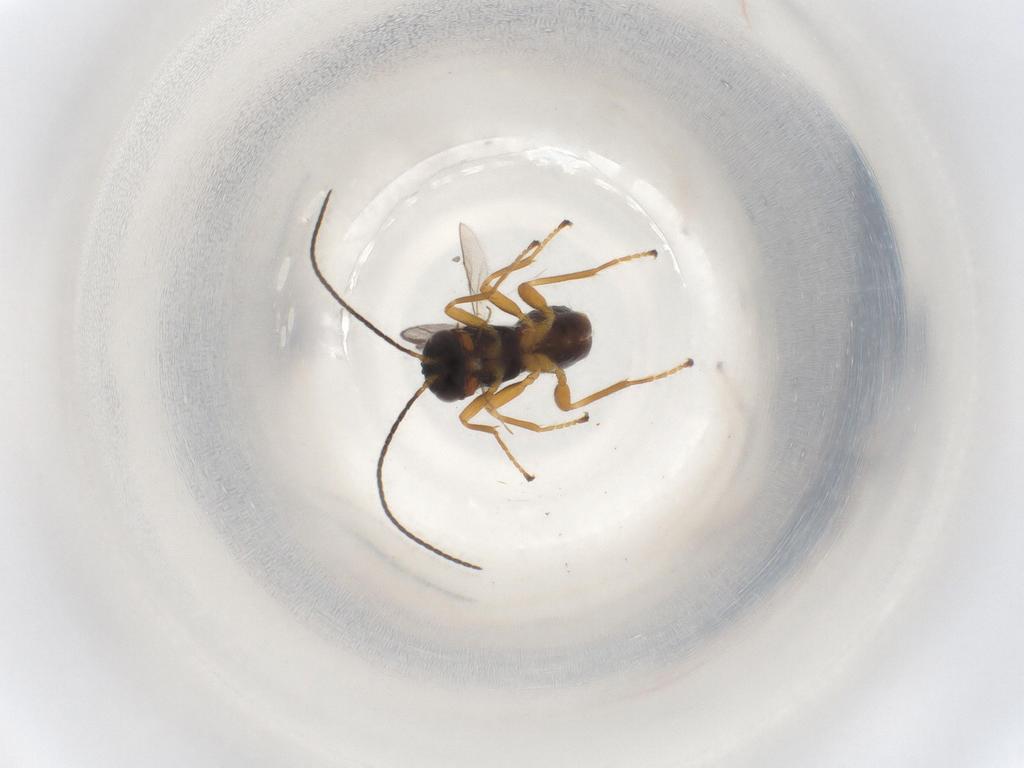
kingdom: Animalia
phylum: Arthropoda
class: Insecta
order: Hymenoptera
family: Braconidae
